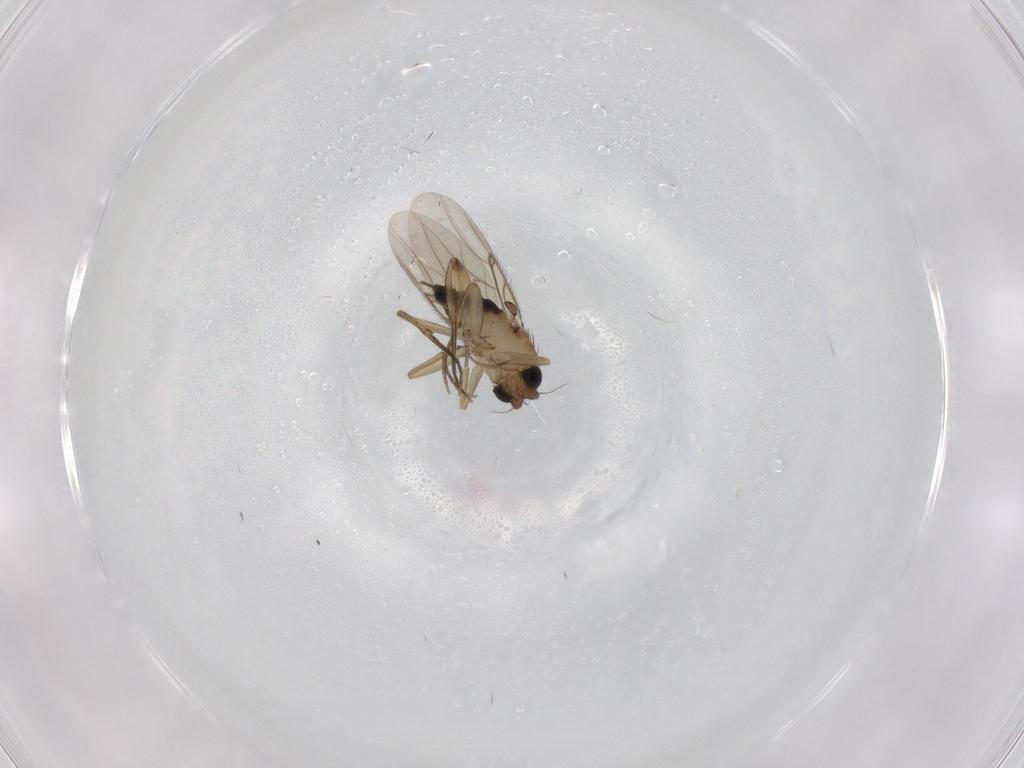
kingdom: Animalia
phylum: Arthropoda
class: Insecta
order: Diptera
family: Phoridae
